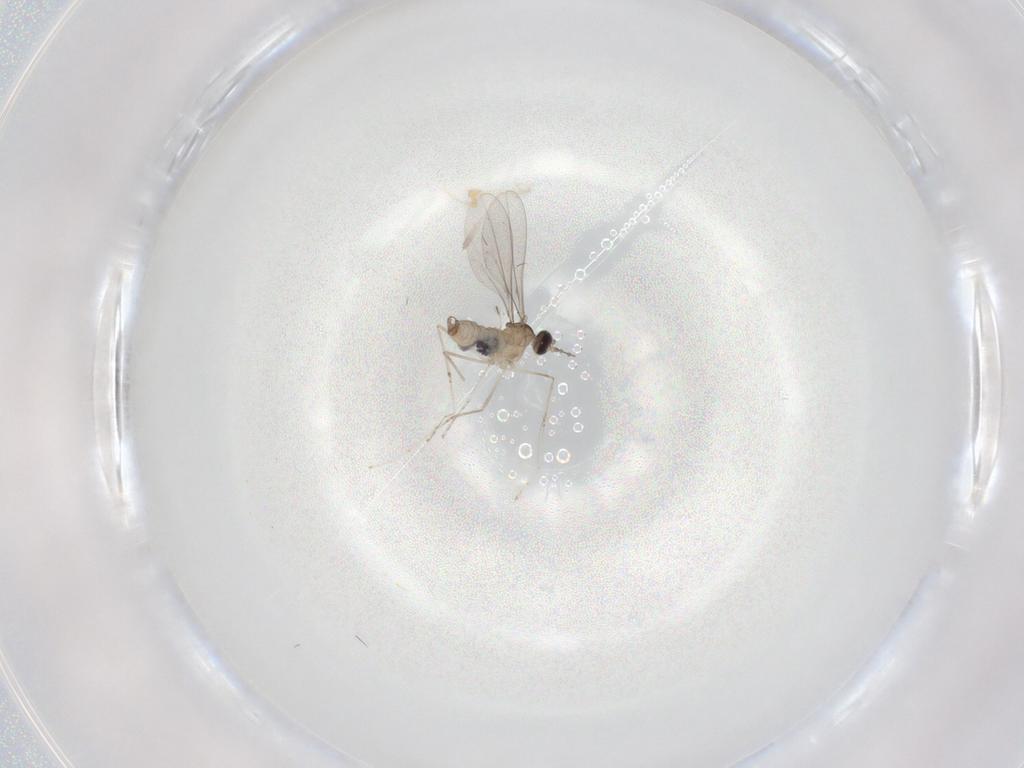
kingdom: Animalia
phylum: Arthropoda
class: Insecta
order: Diptera
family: Cecidomyiidae
